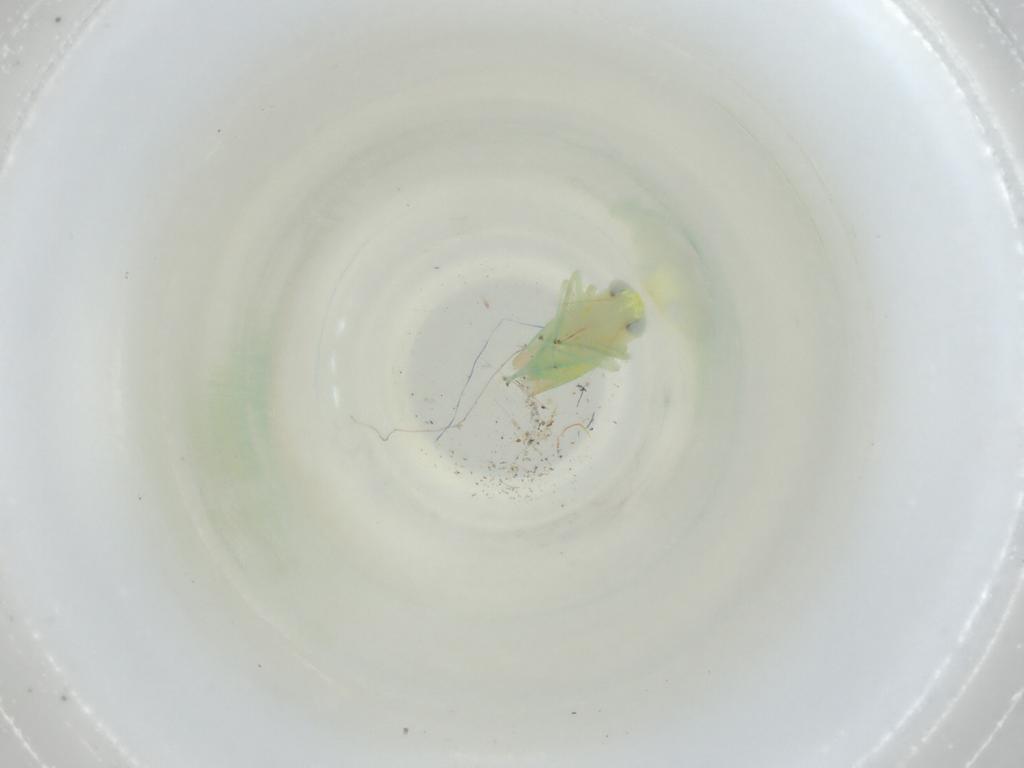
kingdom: Animalia
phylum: Arthropoda
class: Insecta
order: Hemiptera
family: Cicadellidae
